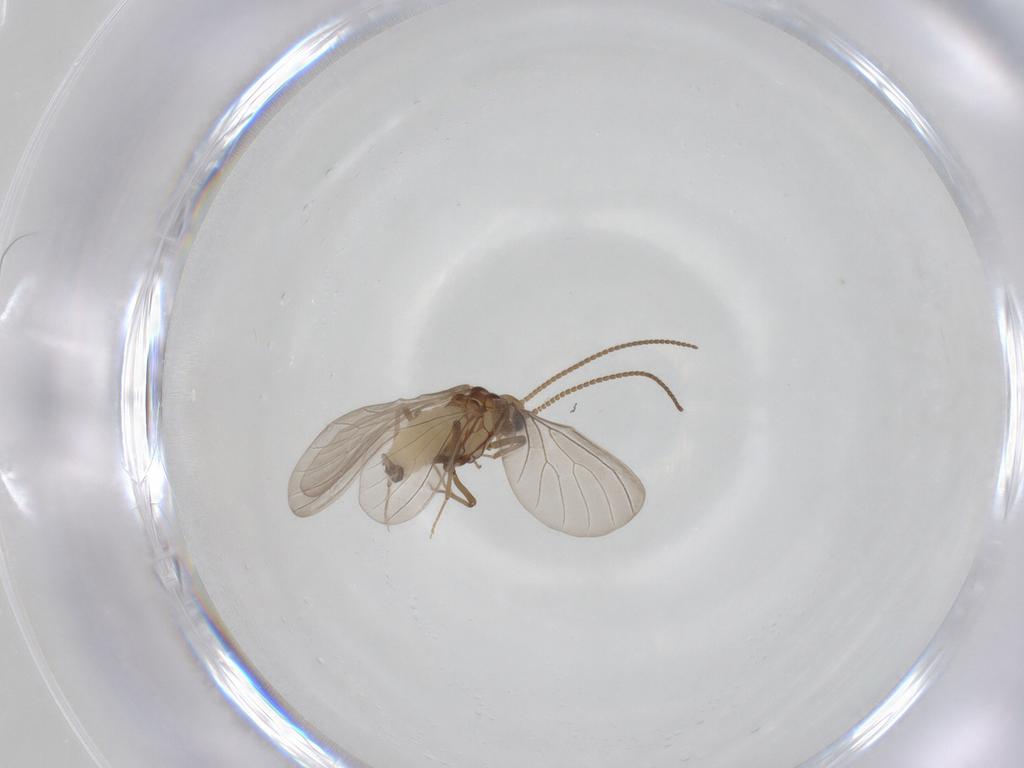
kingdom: Animalia
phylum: Arthropoda
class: Insecta
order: Neuroptera
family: Coniopterygidae
